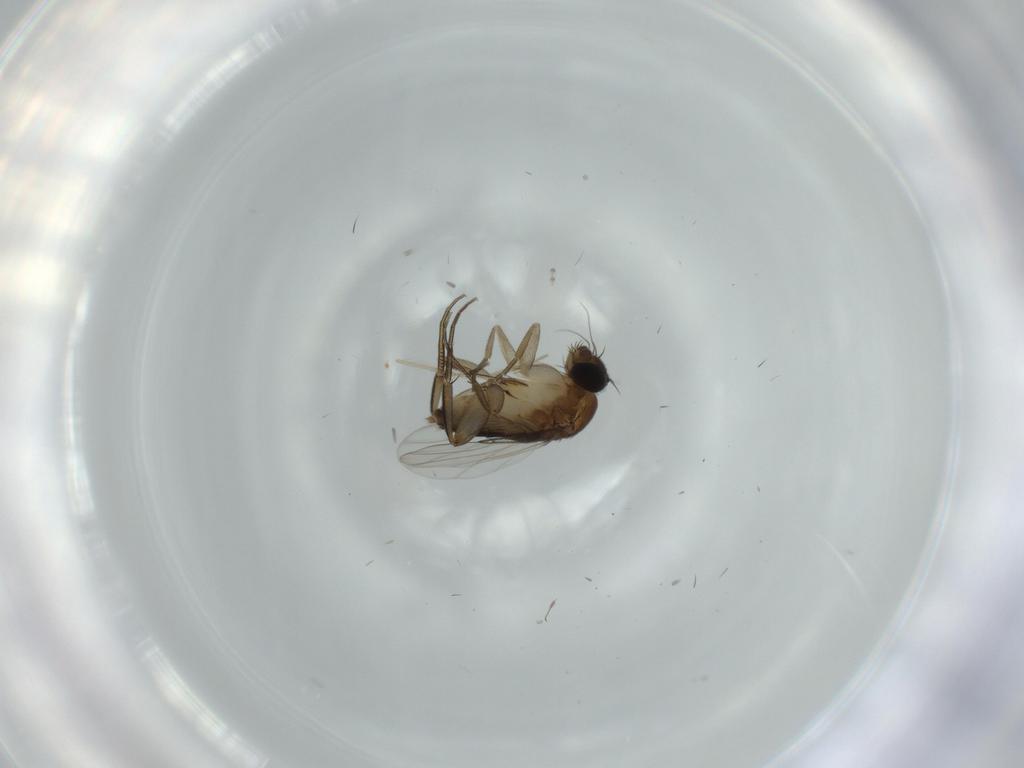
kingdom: Animalia
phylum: Arthropoda
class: Insecta
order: Diptera
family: Phoridae
